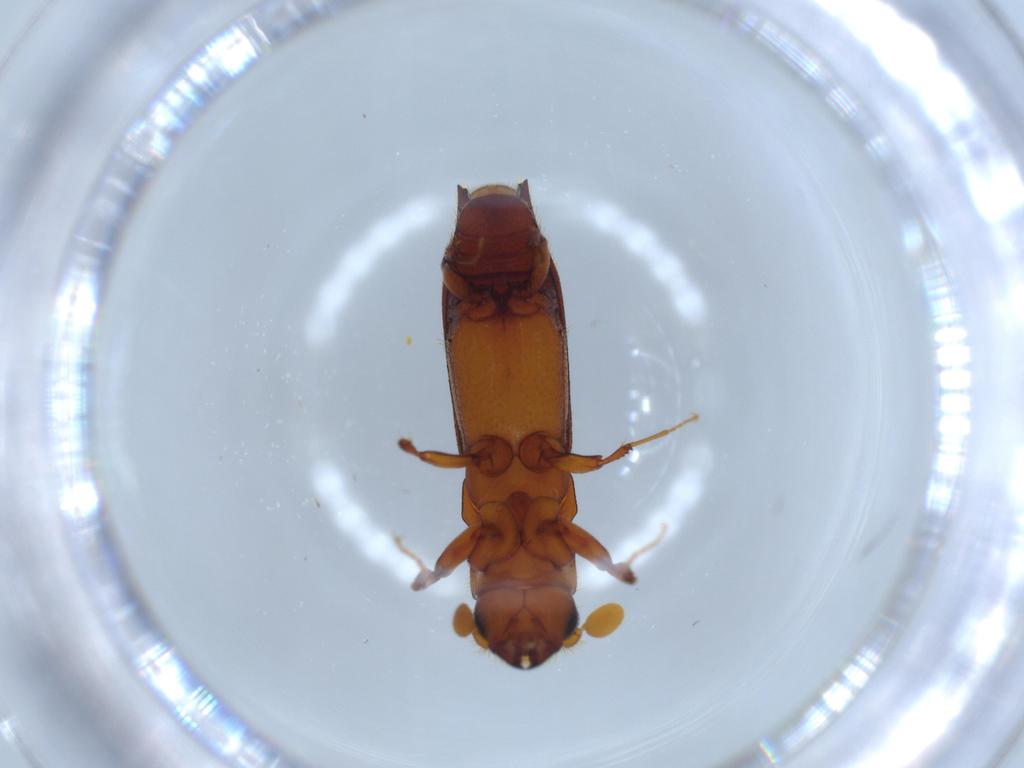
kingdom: Animalia
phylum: Arthropoda
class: Insecta
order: Coleoptera
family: Curculionidae
